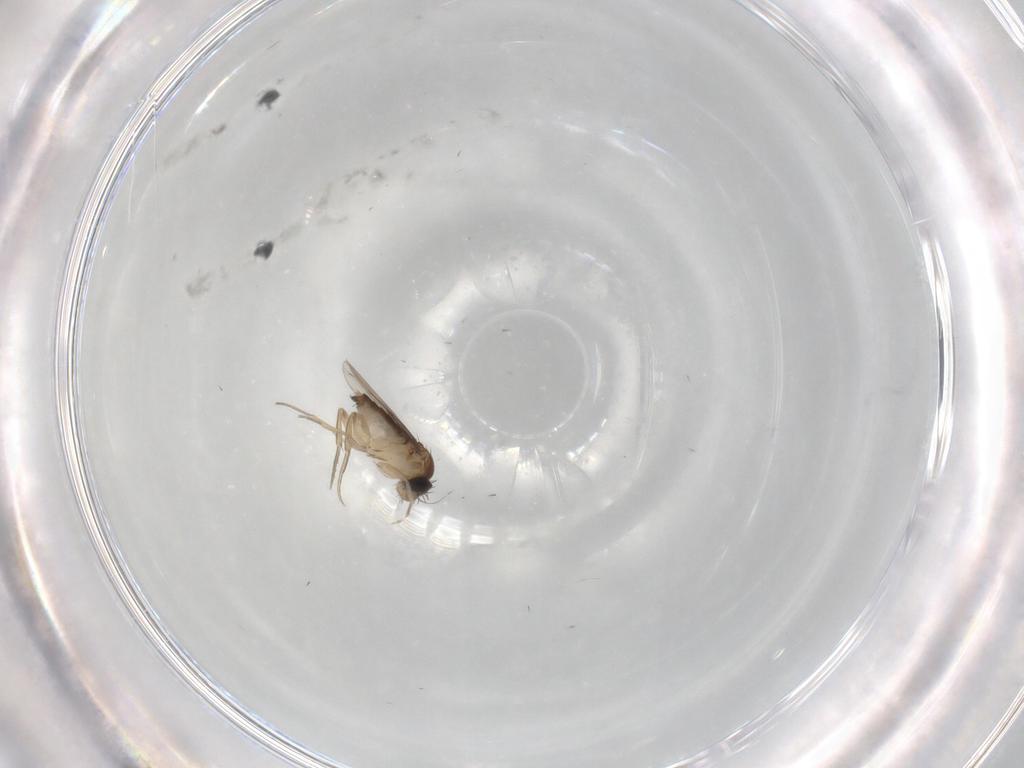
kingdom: Animalia
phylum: Arthropoda
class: Insecta
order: Diptera
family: Phoridae
